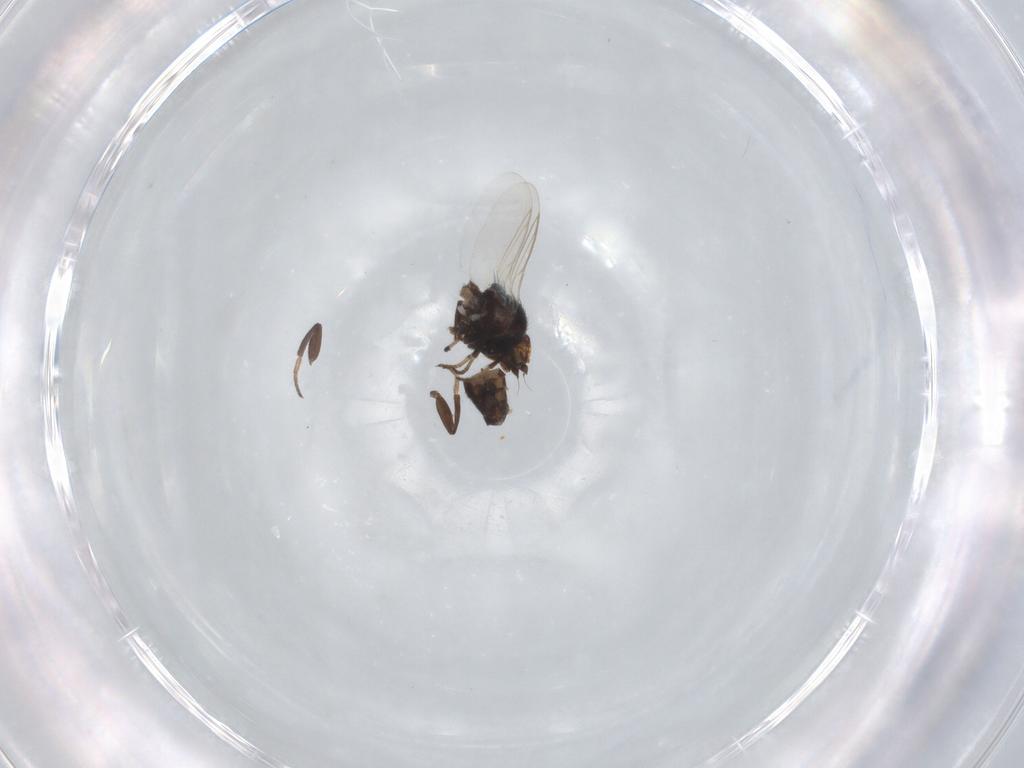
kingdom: Animalia
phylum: Arthropoda
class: Insecta
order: Diptera
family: Agromyzidae
